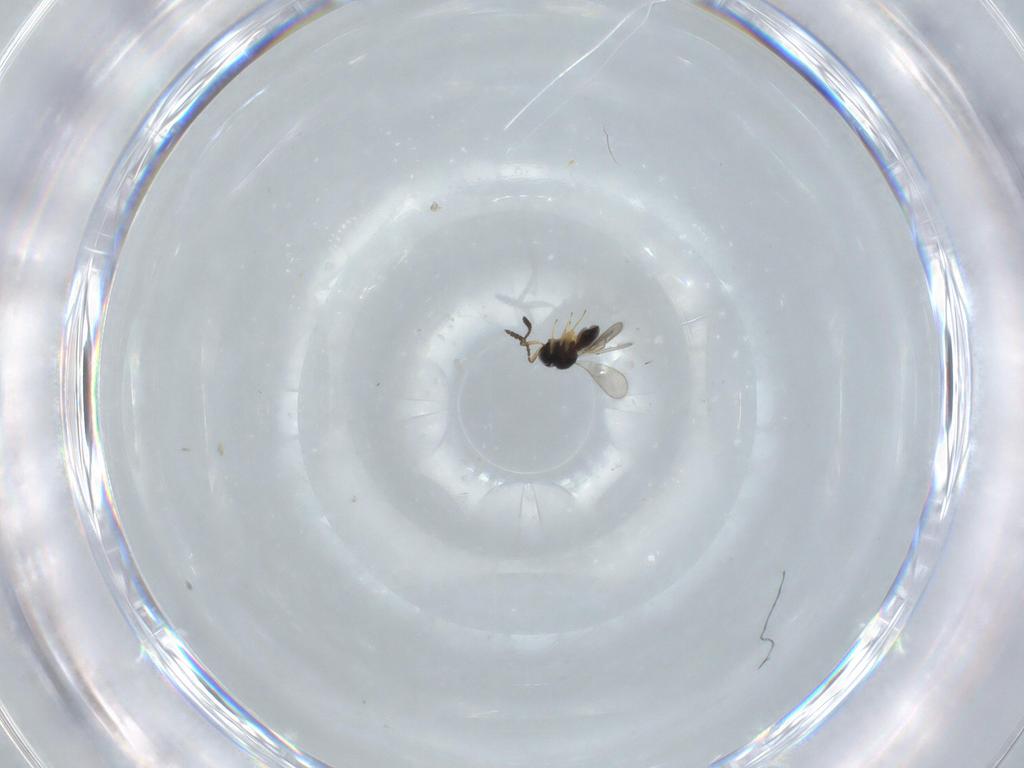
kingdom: Animalia
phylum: Arthropoda
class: Insecta
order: Hymenoptera
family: Scelionidae
